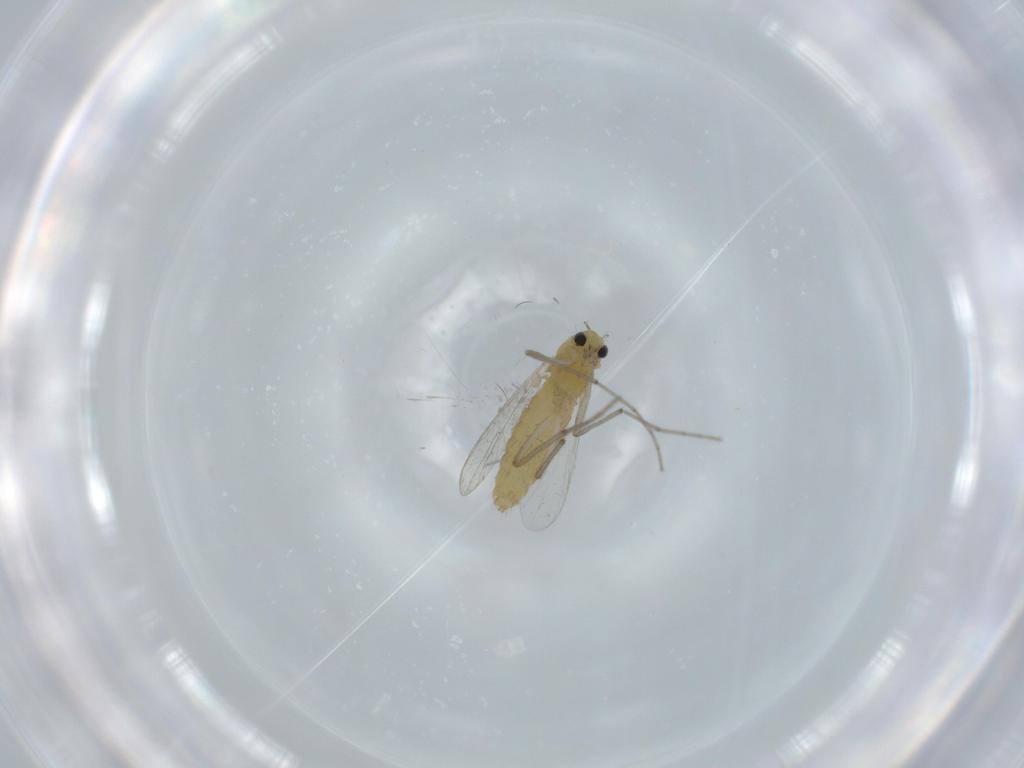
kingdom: Animalia
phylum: Arthropoda
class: Insecta
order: Diptera
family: Chironomidae
